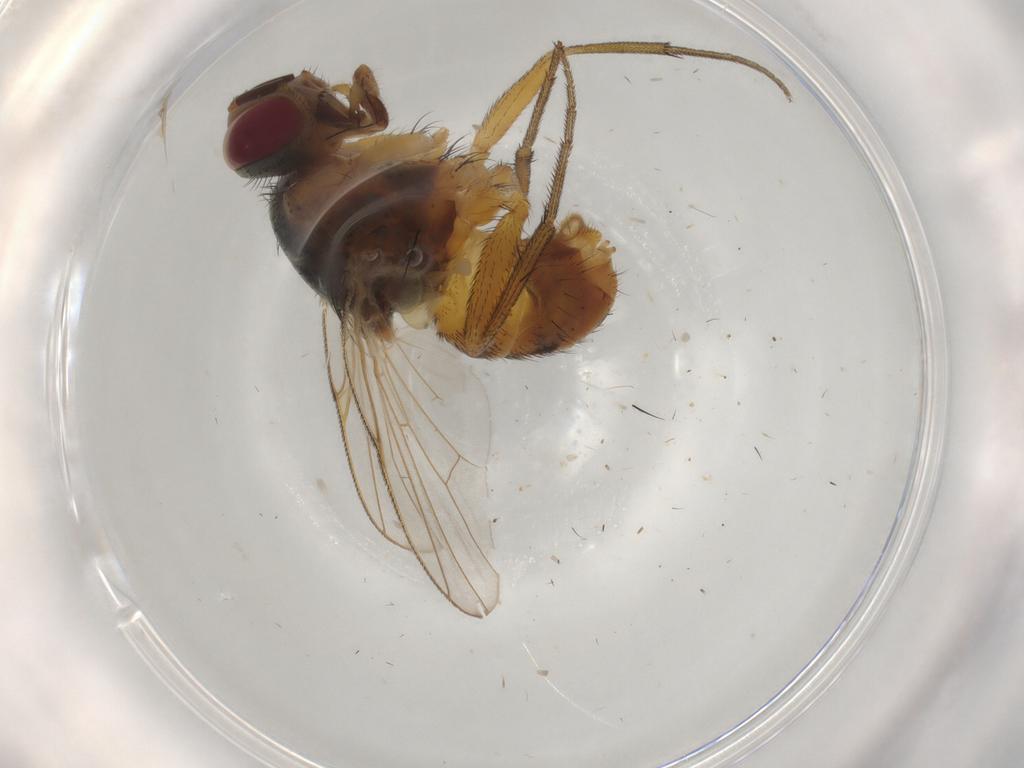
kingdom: Animalia
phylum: Arthropoda
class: Insecta
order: Diptera
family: Muscidae
